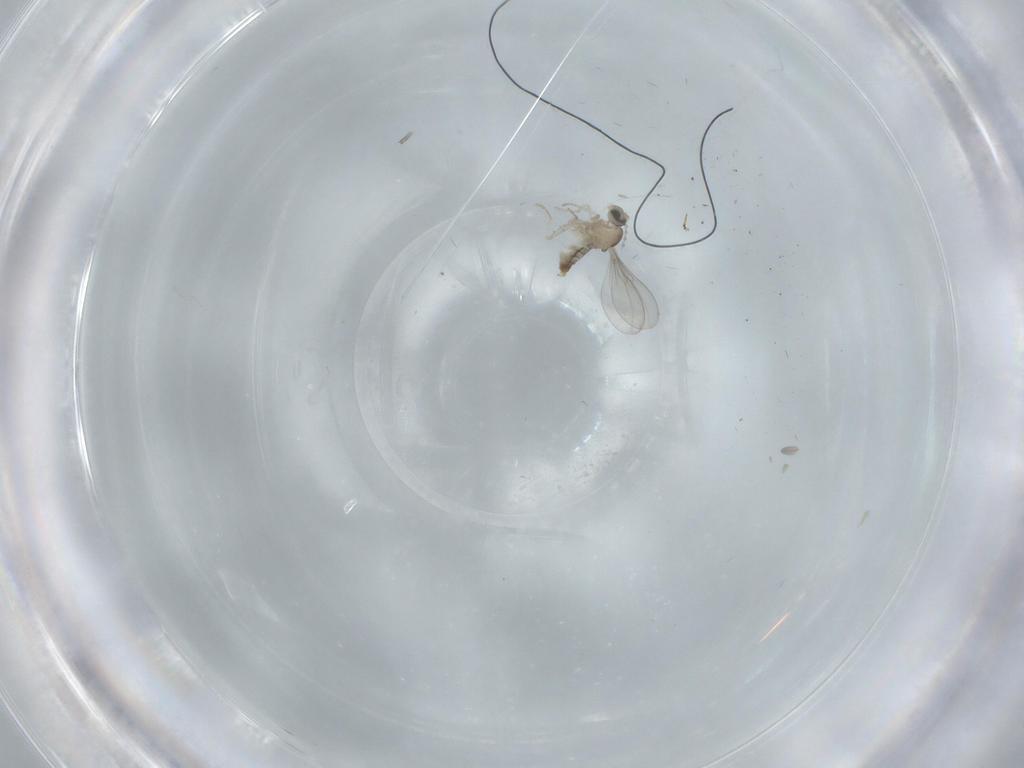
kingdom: Animalia
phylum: Arthropoda
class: Insecta
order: Diptera
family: Cecidomyiidae
